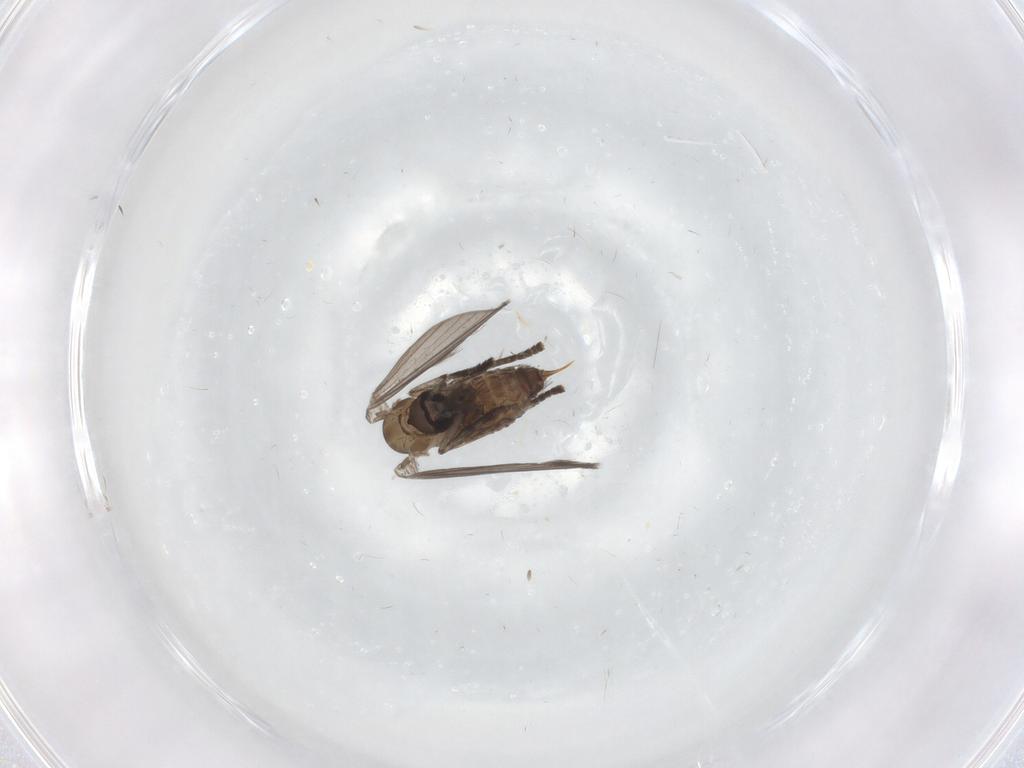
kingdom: Animalia
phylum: Arthropoda
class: Insecta
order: Diptera
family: Psychodidae
